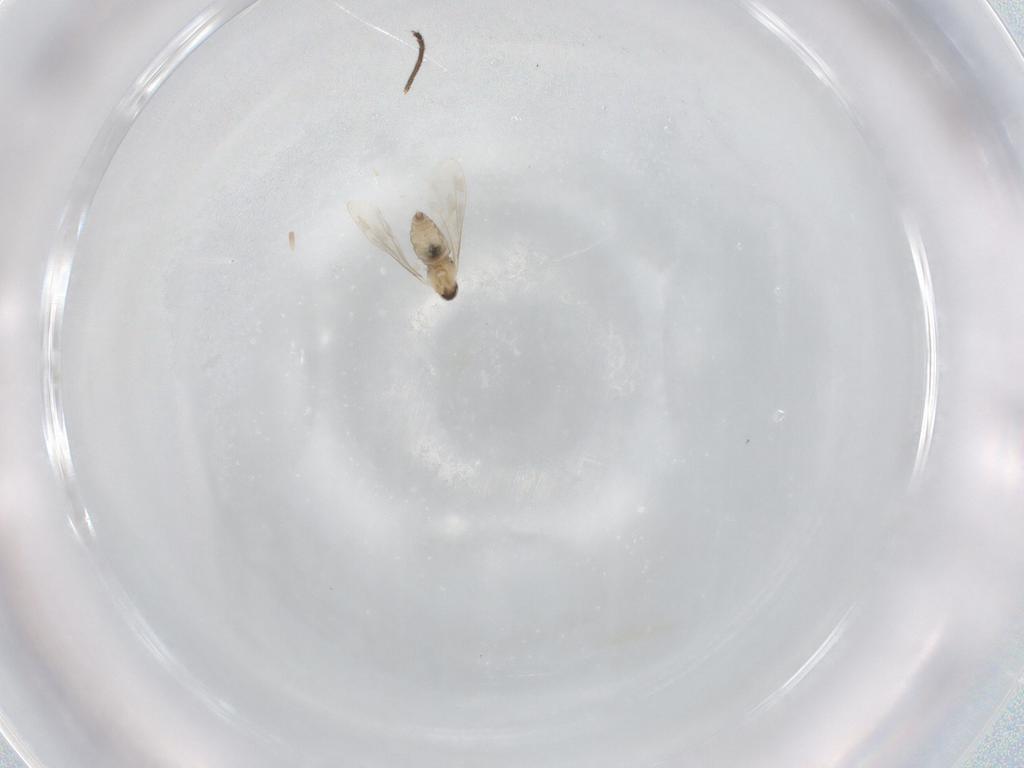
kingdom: Animalia
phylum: Arthropoda
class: Insecta
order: Diptera
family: Dolichopodidae
